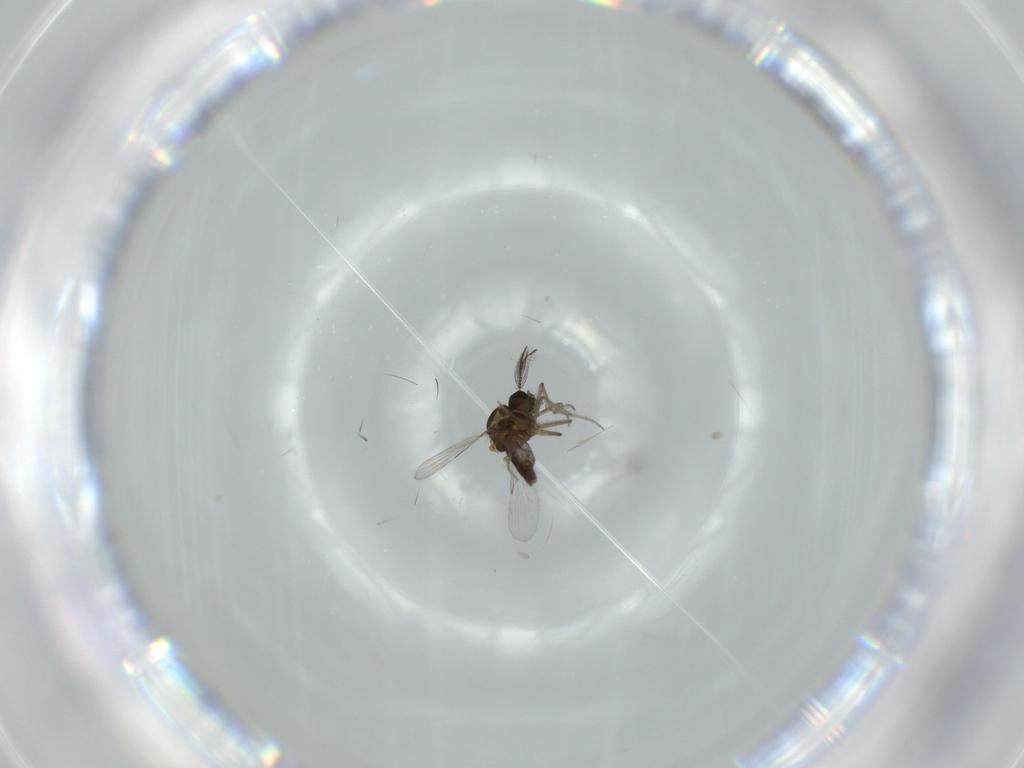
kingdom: Animalia
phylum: Arthropoda
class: Insecta
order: Diptera
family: Ceratopogonidae
